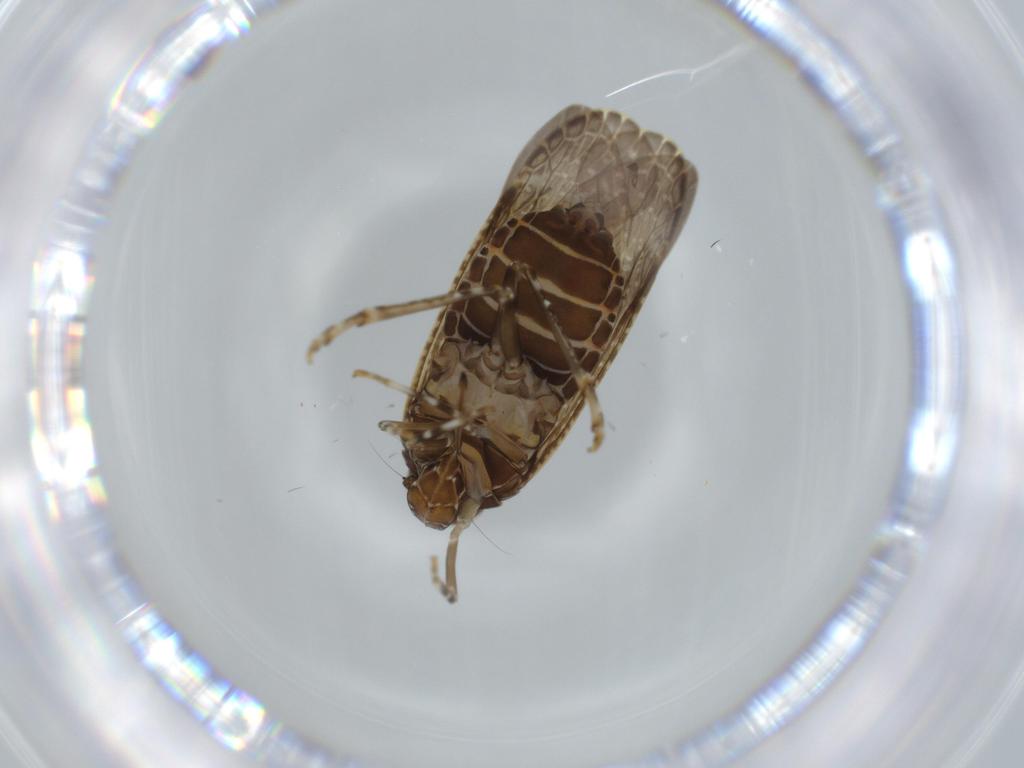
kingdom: Animalia
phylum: Arthropoda
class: Insecta
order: Hemiptera
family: Achilidae
